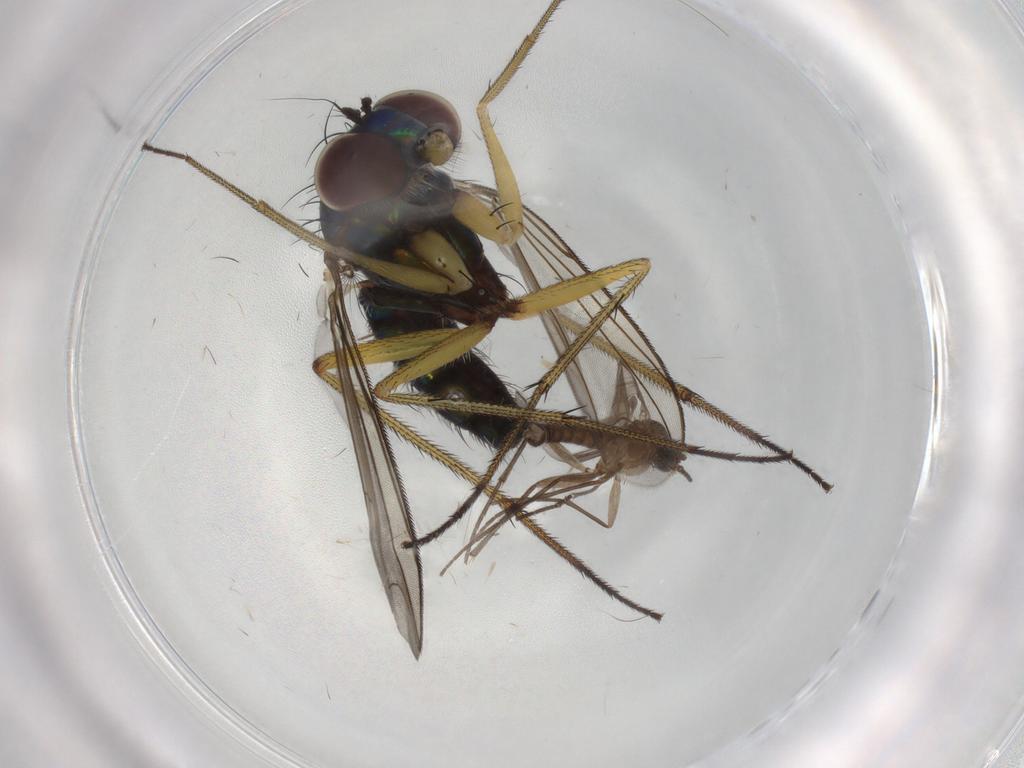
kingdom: Animalia
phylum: Arthropoda
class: Insecta
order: Diptera
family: Dolichopodidae
